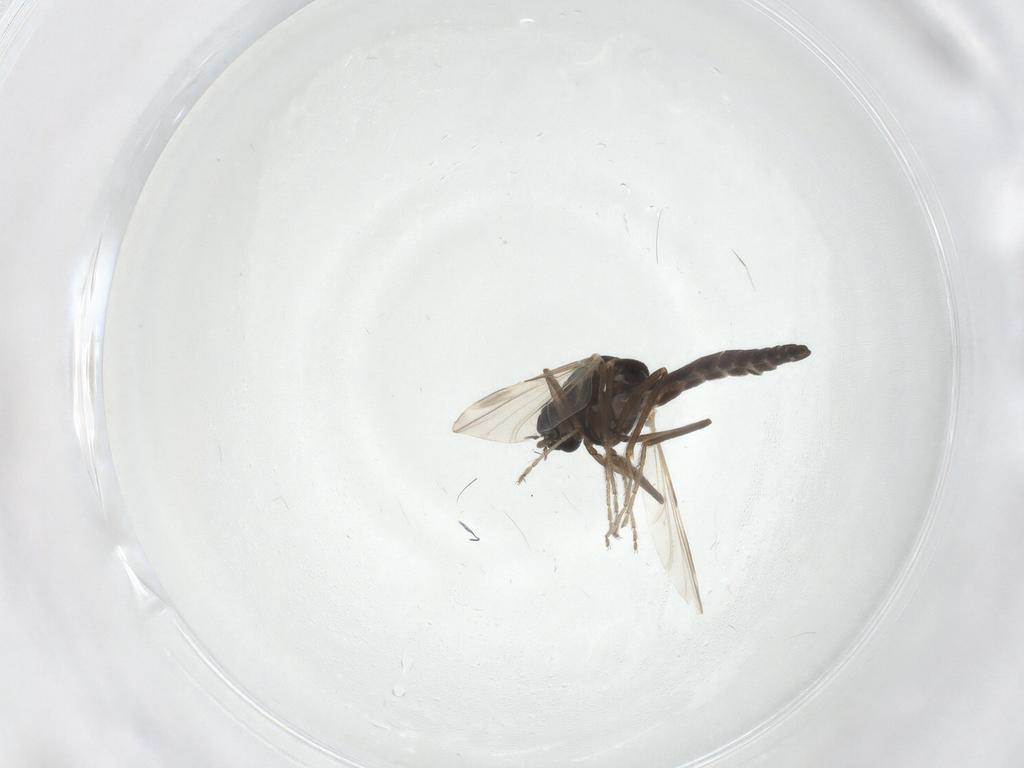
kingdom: Animalia
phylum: Arthropoda
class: Insecta
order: Diptera
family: Ceratopogonidae
